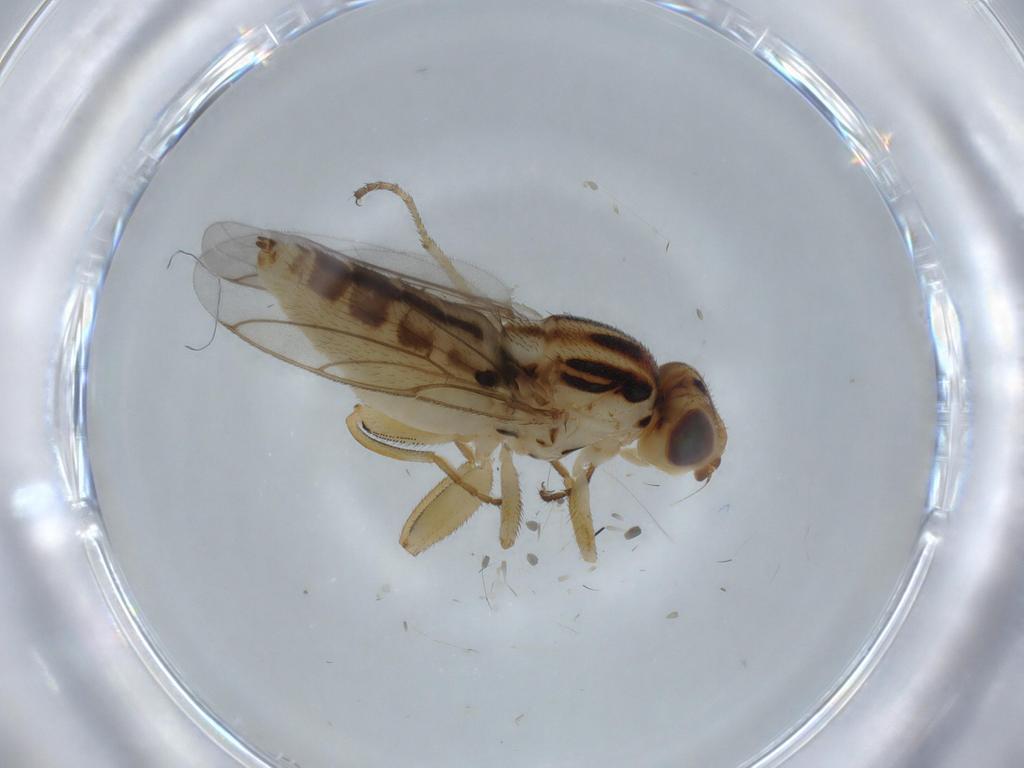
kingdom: Animalia
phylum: Arthropoda
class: Insecta
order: Diptera
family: Chloropidae
